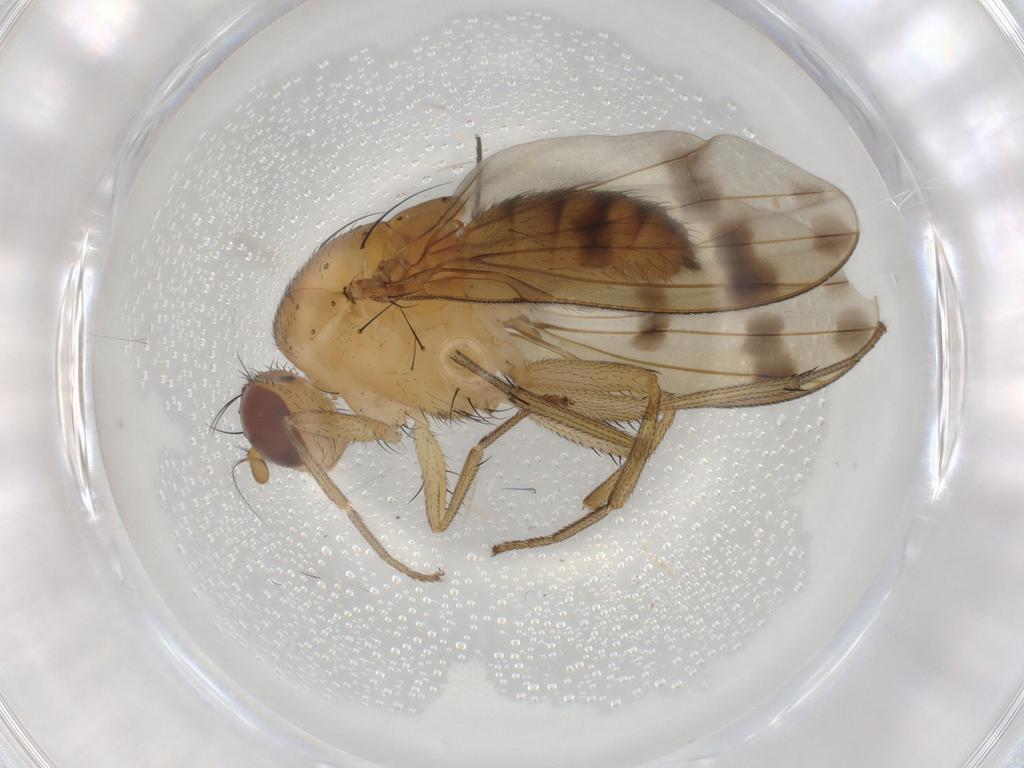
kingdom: Animalia
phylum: Arthropoda
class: Insecta
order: Diptera
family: Dolichopodidae
